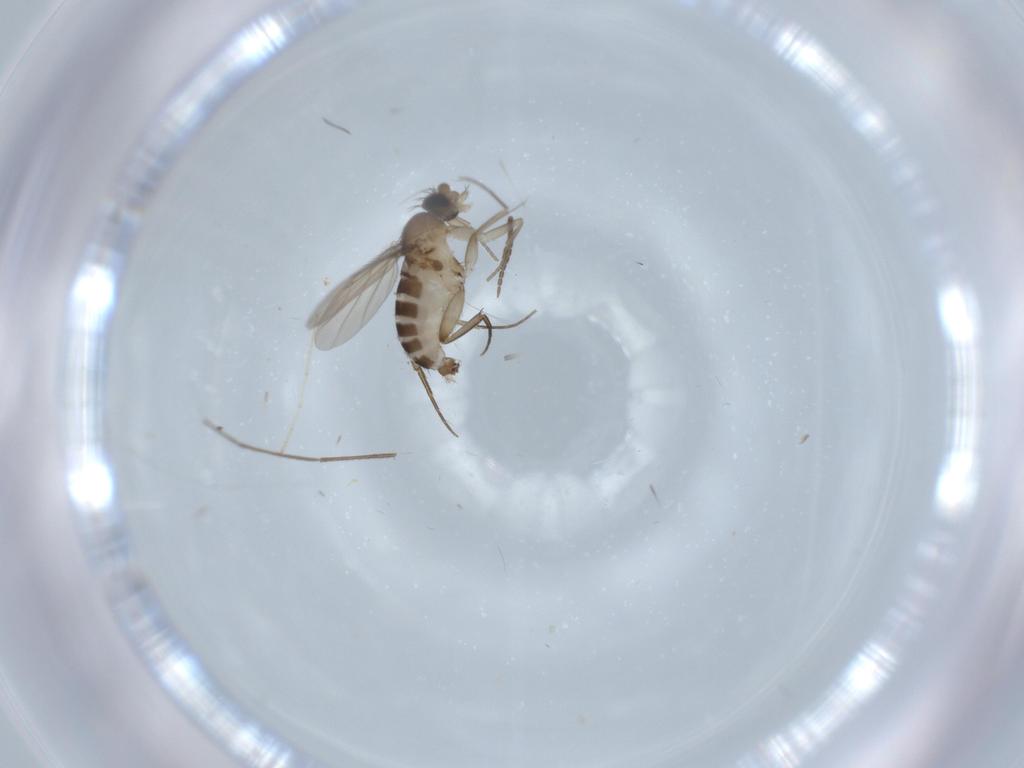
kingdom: Animalia
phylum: Arthropoda
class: Insecta
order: Diptera
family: Phoridae
